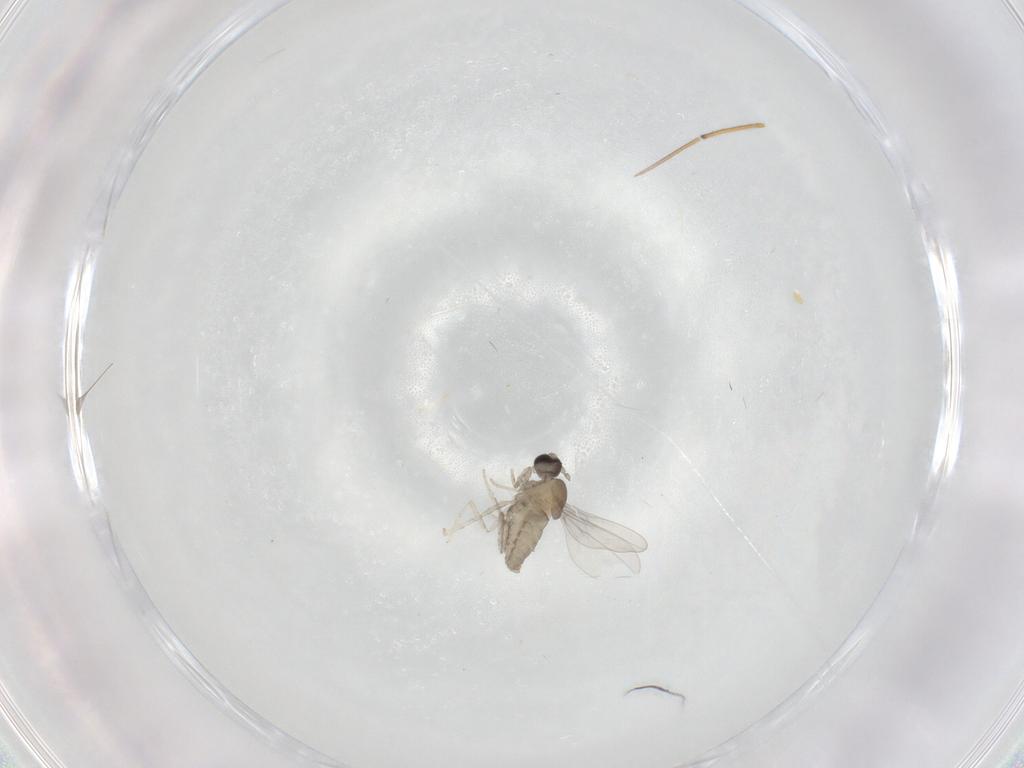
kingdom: Animalia
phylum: Arthropoda
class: Insecta
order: Diptera
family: Cecidomyiidae
